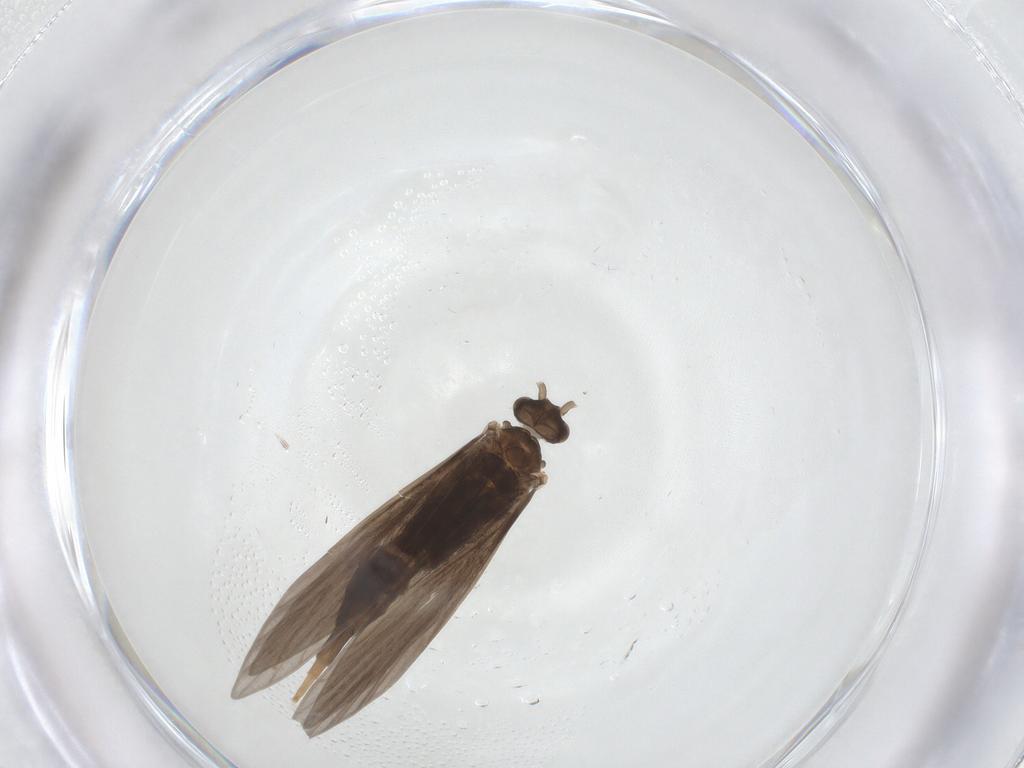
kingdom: Animalia
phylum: Arthropoda
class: Insecta
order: Trichoptera
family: Xiphocentronidae
